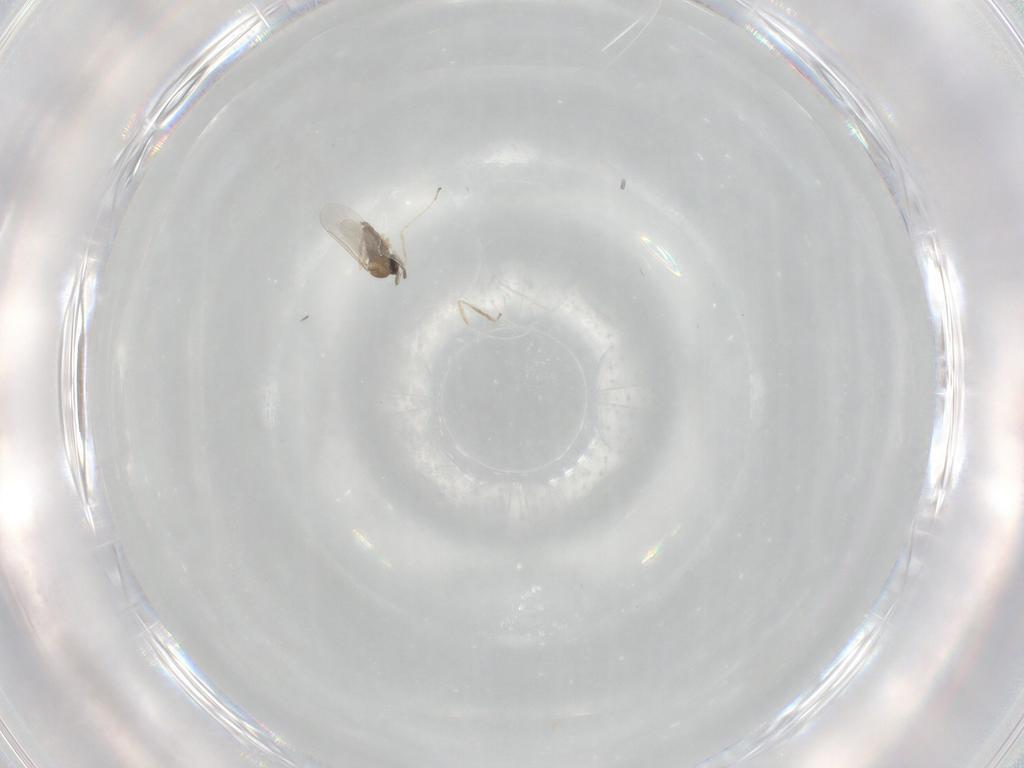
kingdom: Animalia
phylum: Arthropoda
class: Insecta
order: Diptera
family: Cecidomyiidae
